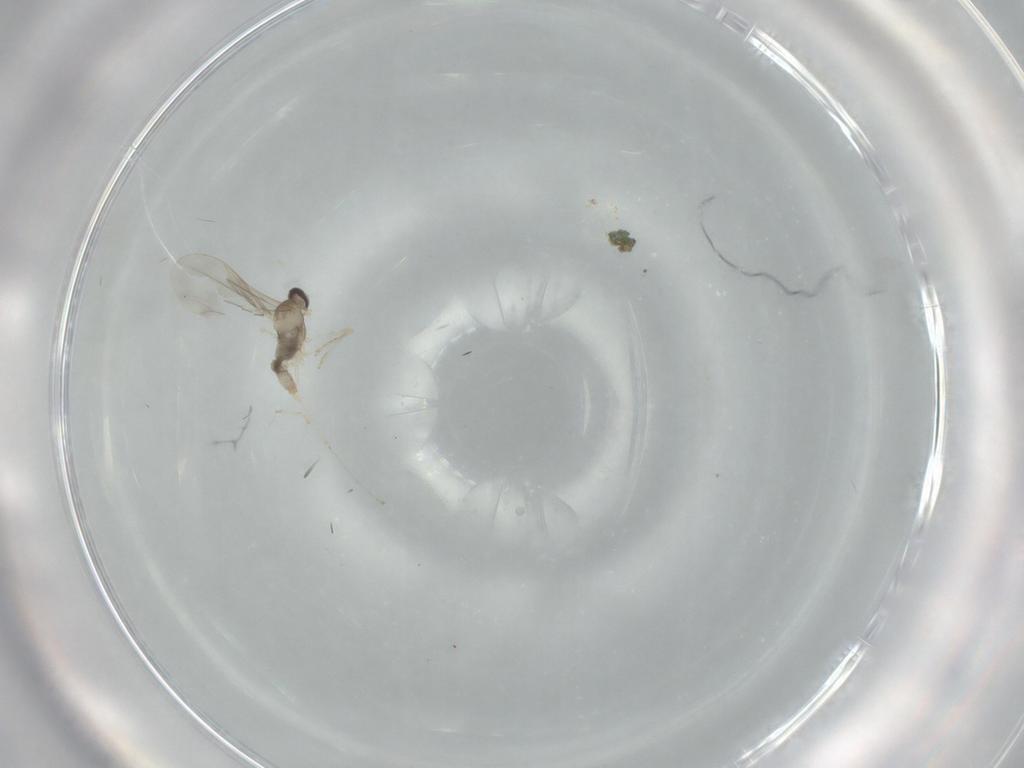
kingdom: Animalia
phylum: Arthropoda
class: Insecta
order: Diptera
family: Cecidomyiidae
